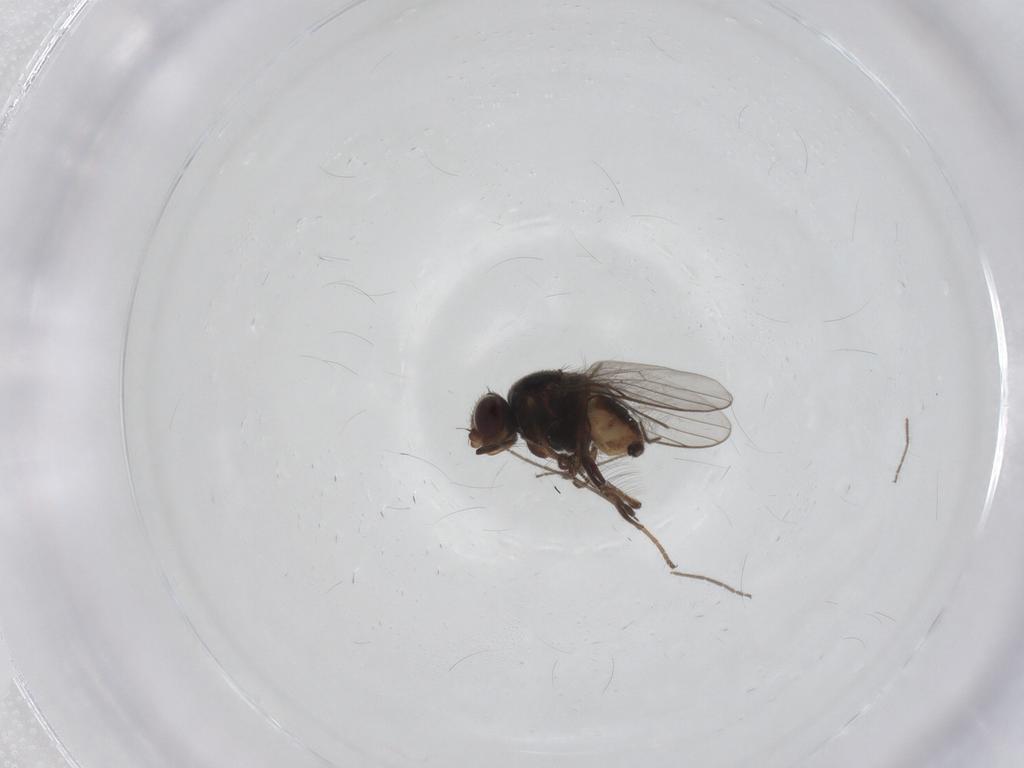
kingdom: Animalia
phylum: Arthropoda
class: Insecta
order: Diptera
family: Chloropidae
